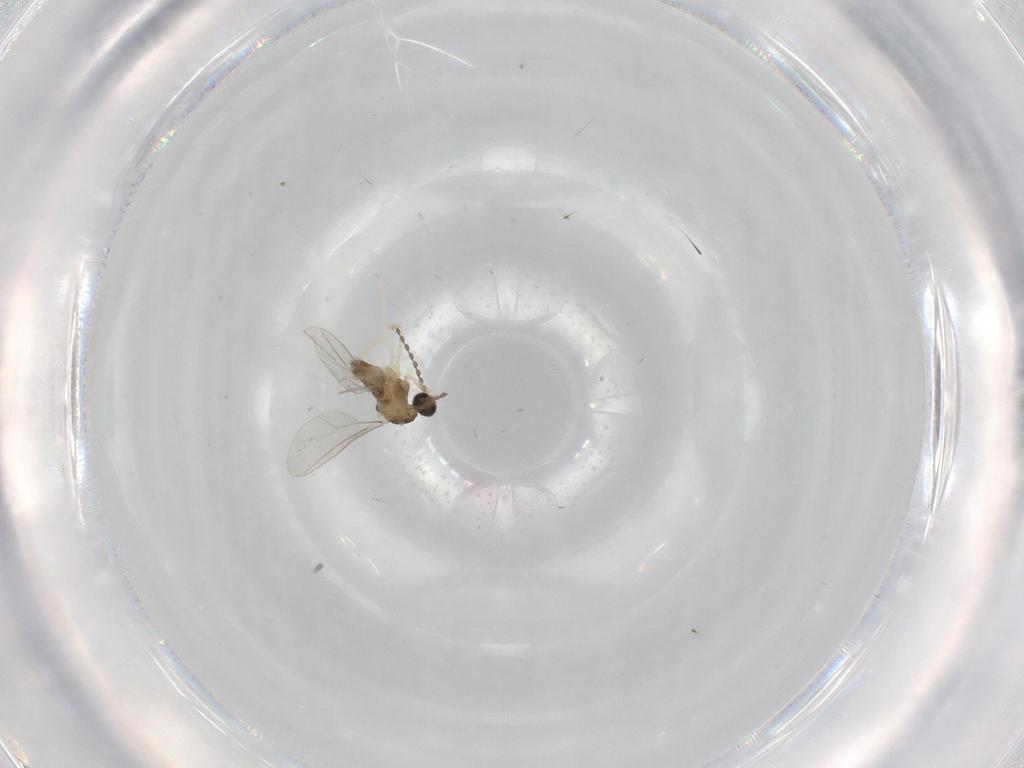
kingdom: Animalia
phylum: Arthropoda
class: Insecta
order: Diptera
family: Cecidomyiidae
